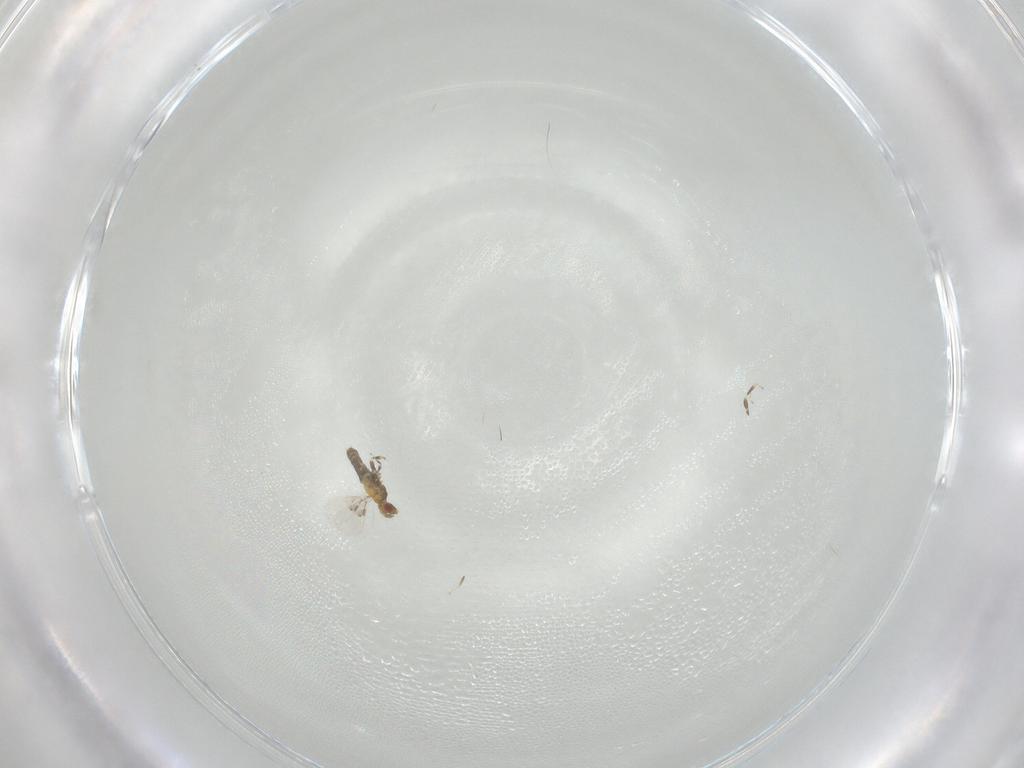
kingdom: Animalia
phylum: Arthropoda
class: Insecta
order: Hymenoptera
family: Trichogrammatidae
